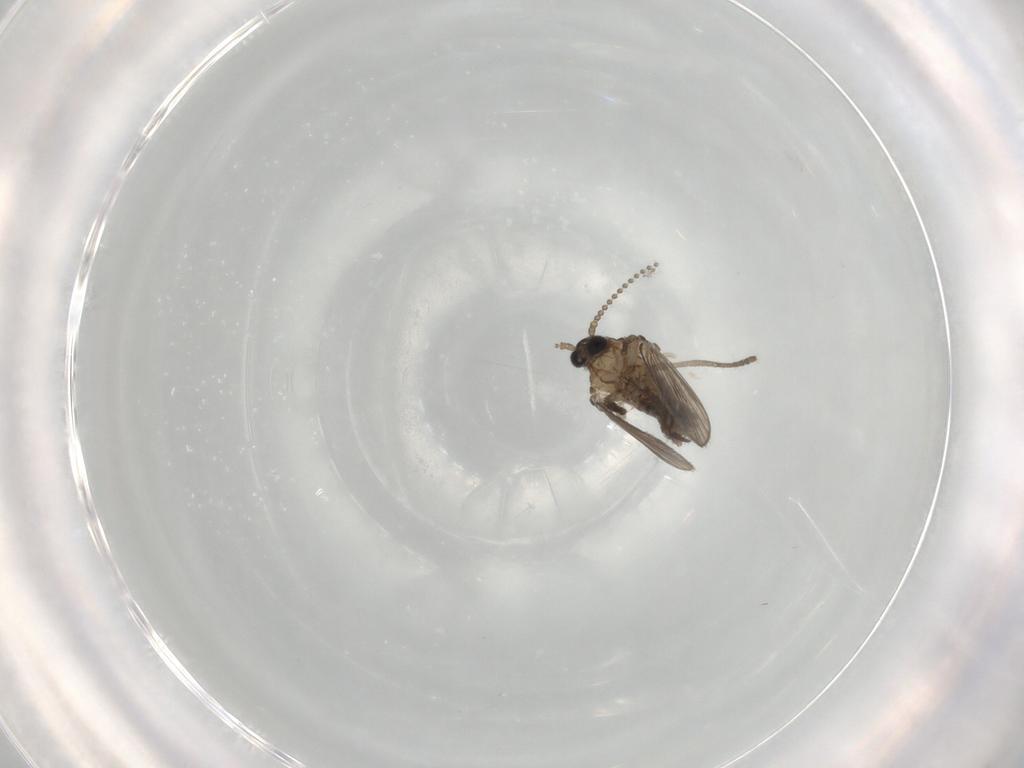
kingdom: Animalia
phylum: Arthropoda
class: Insecta
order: Diptera
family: Psychodidae
